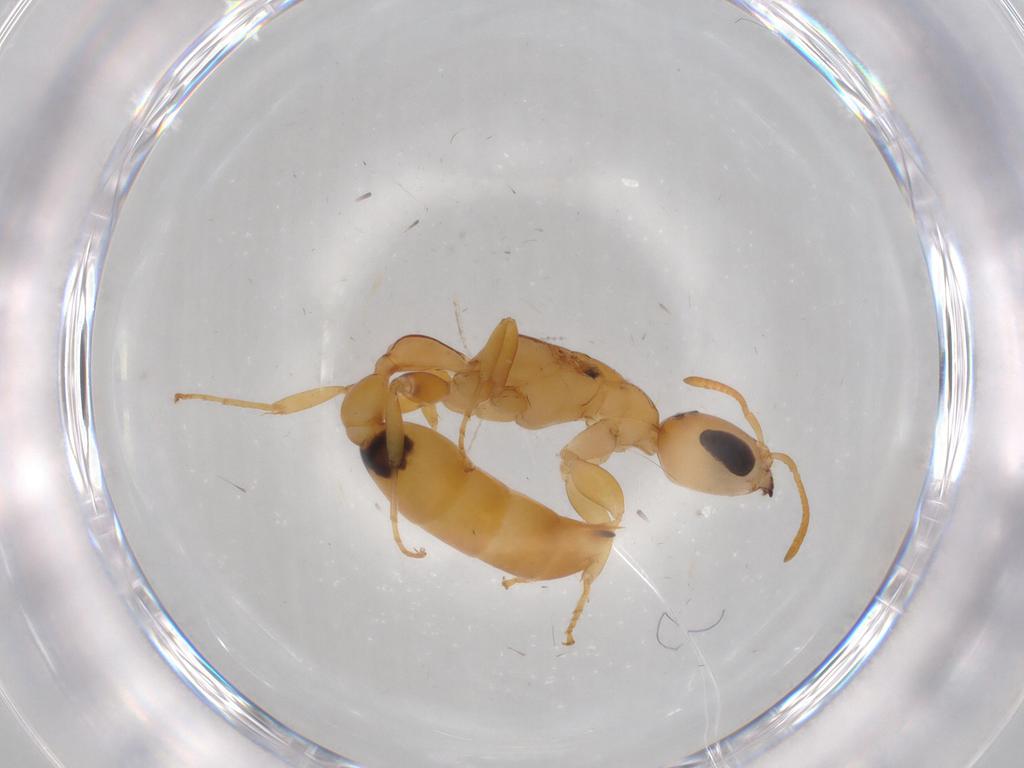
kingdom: Animalia
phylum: Arthropoda
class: Insecta
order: Hymenoptera
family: Formicidae
